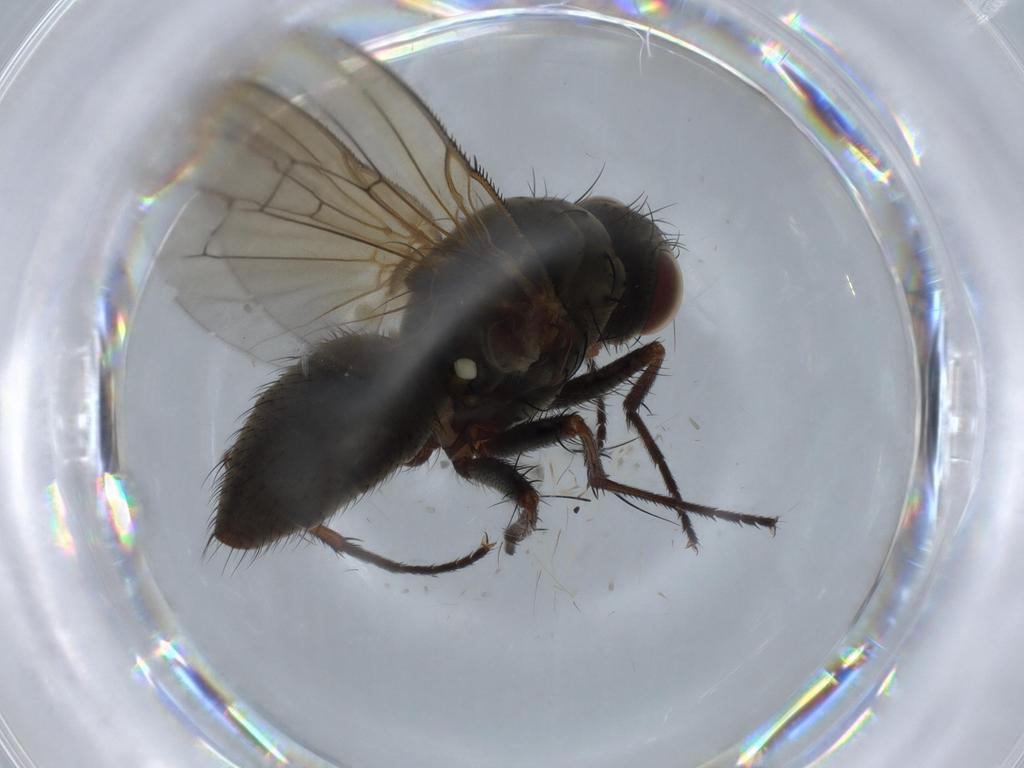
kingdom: Animalia
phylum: Arthropoda
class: Insecta
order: Diptera
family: Anthomyiidae
